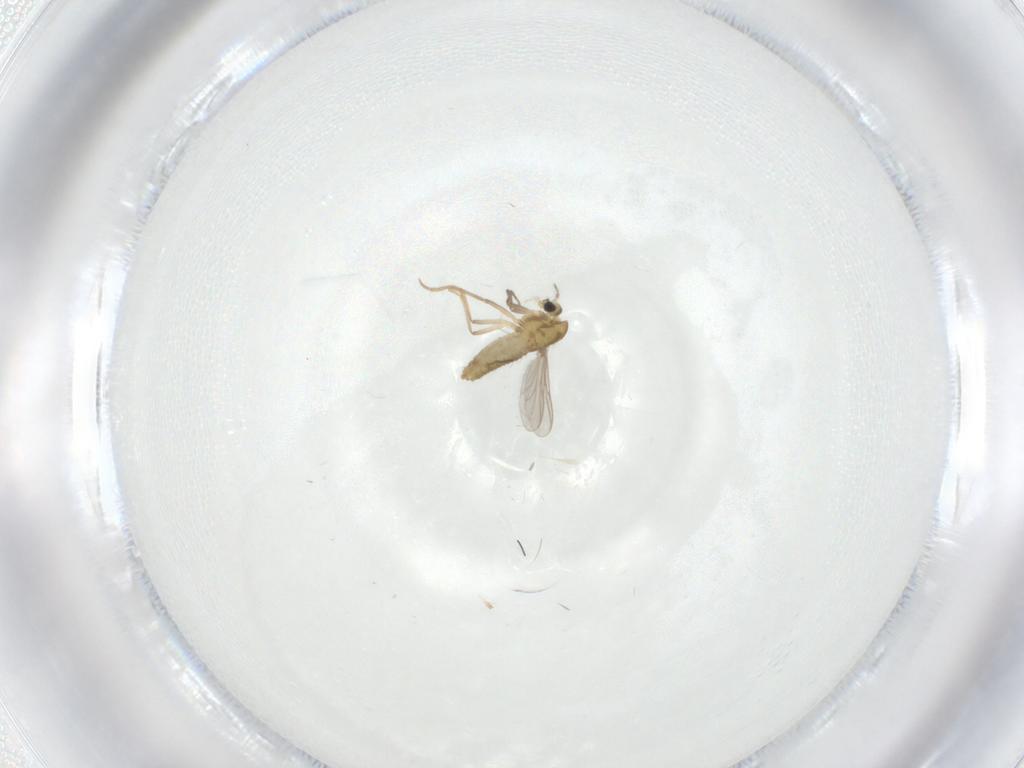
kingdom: Animalia
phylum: Arthropoda
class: Insecta
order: Diptera
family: Chironomidae
